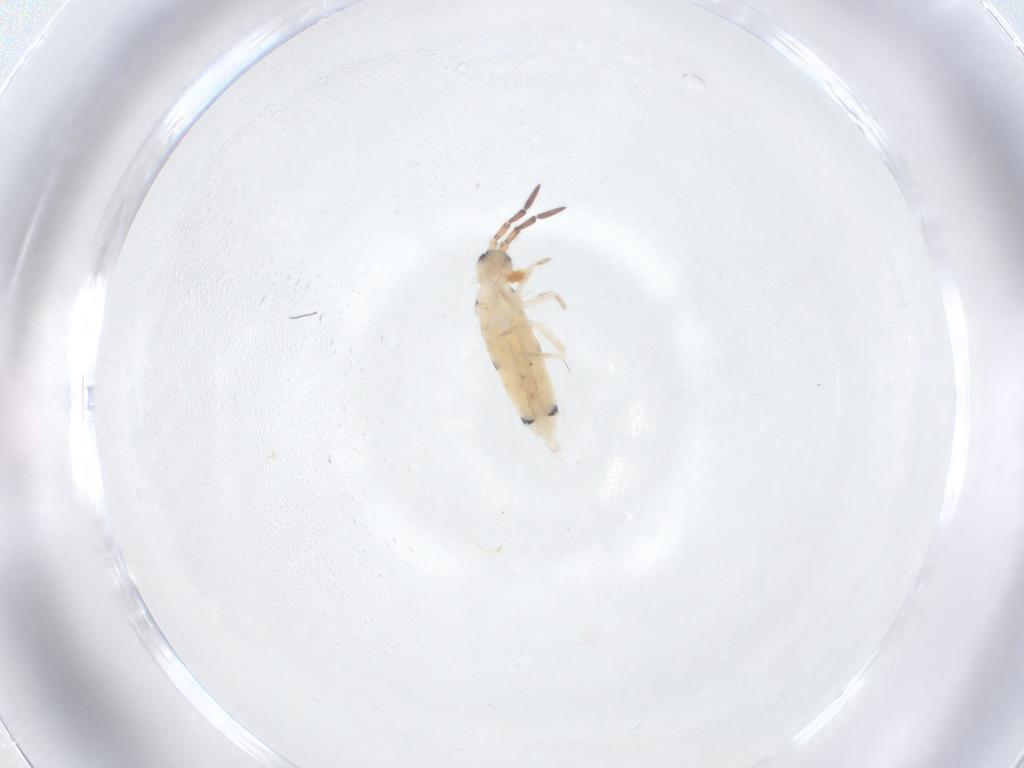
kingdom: Animalia
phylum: Arthropoda
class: Collembola
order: Entomobryomorpha
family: Entomobryidae
